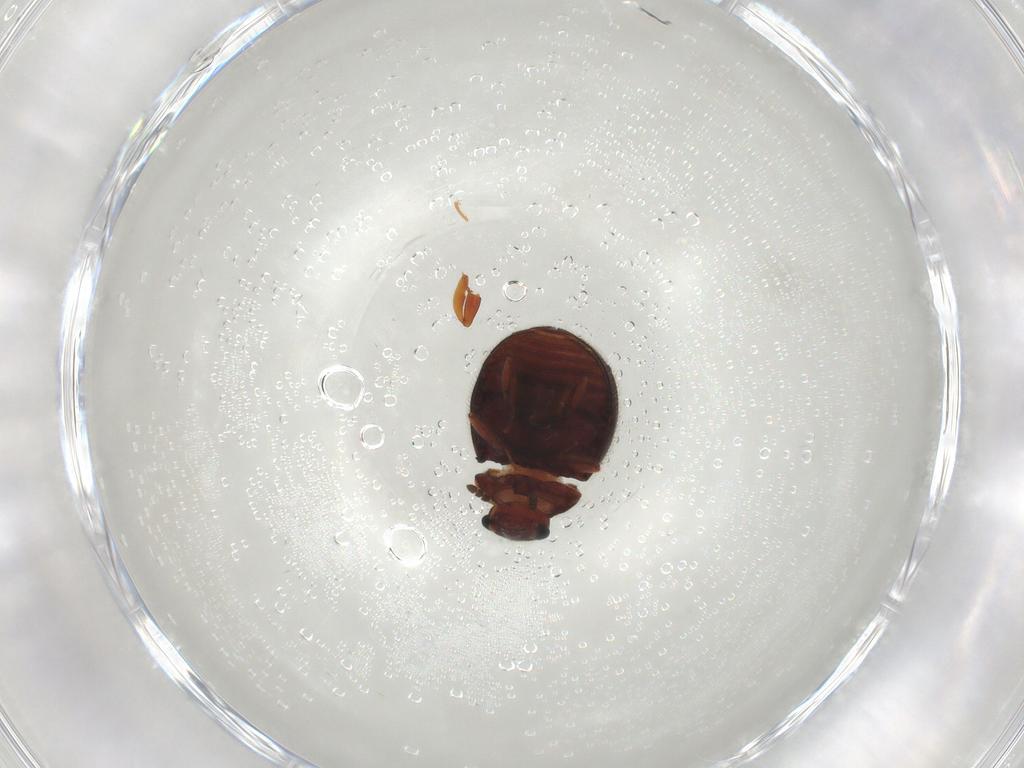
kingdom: Animalia
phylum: Arthropoda
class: Insecta
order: Coleoptera
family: Sphindidae
